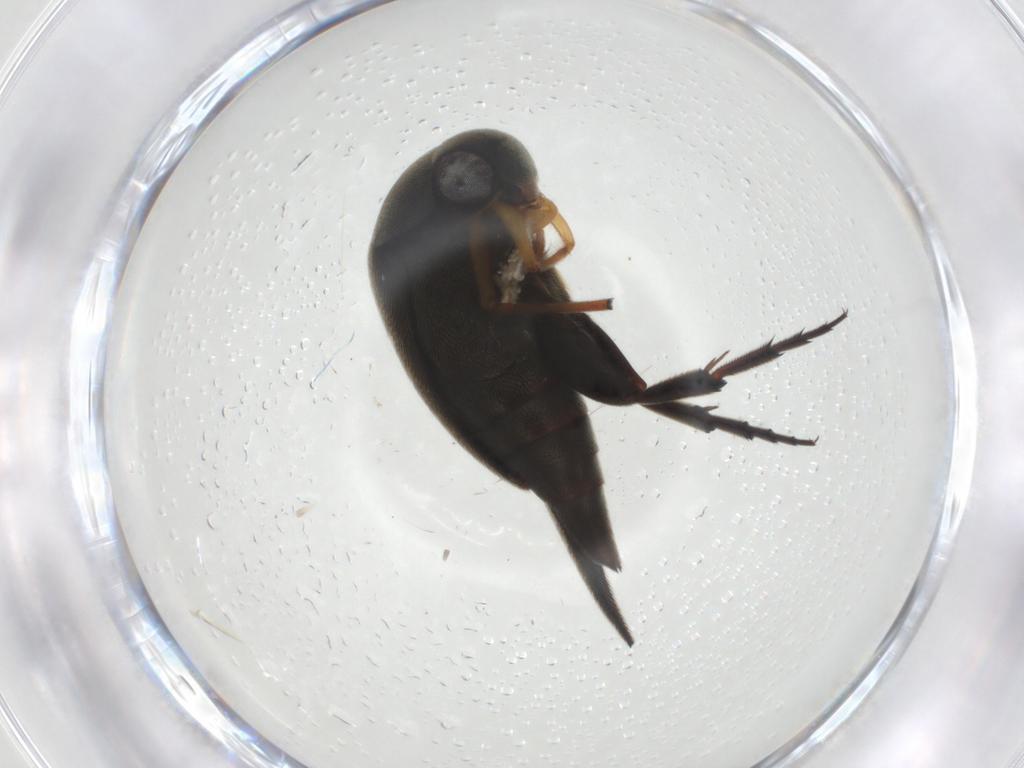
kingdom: Animalia
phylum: Arthropoda
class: Insecta
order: Coleoptera
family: Mordellidae
